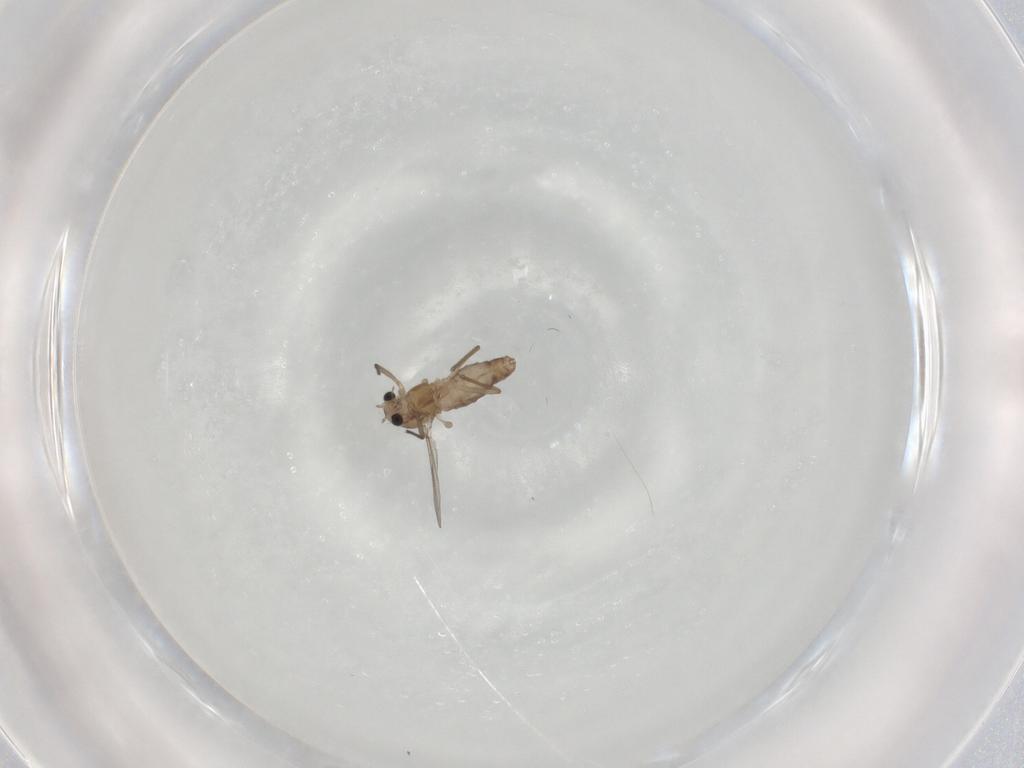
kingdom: Animalia
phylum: Arthropoda
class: Insecta
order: Diptera
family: Chironomidae
